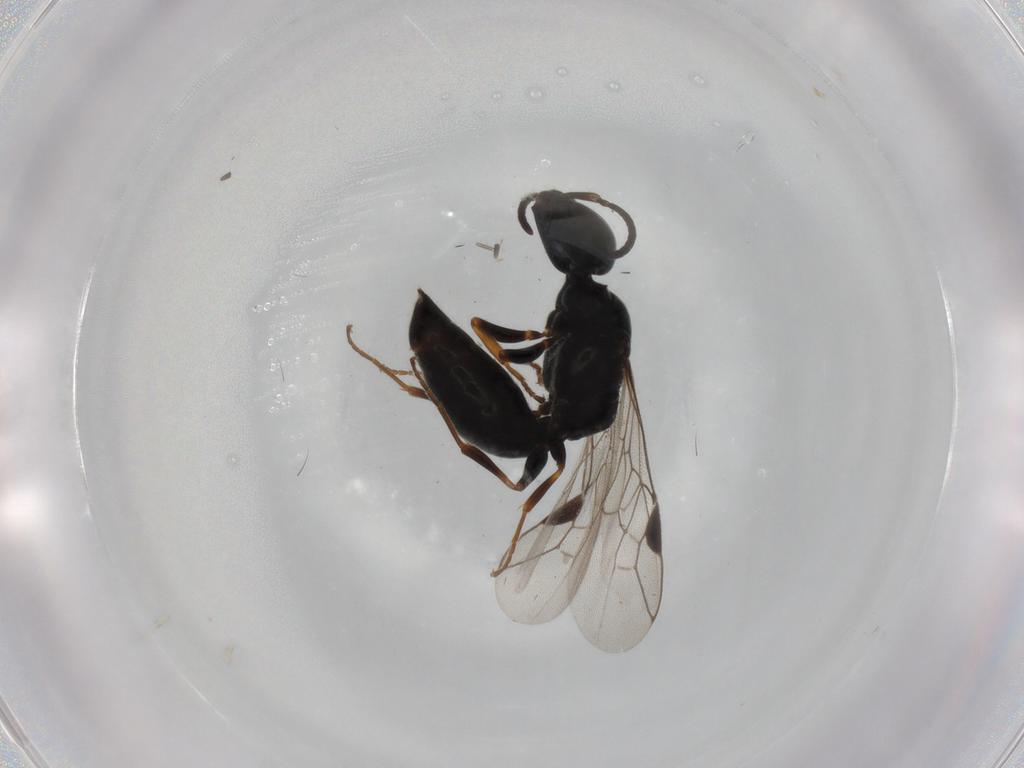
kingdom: Animalia
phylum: Arthropoda
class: Insecta
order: Hymenoptera
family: Pemphredonidae
